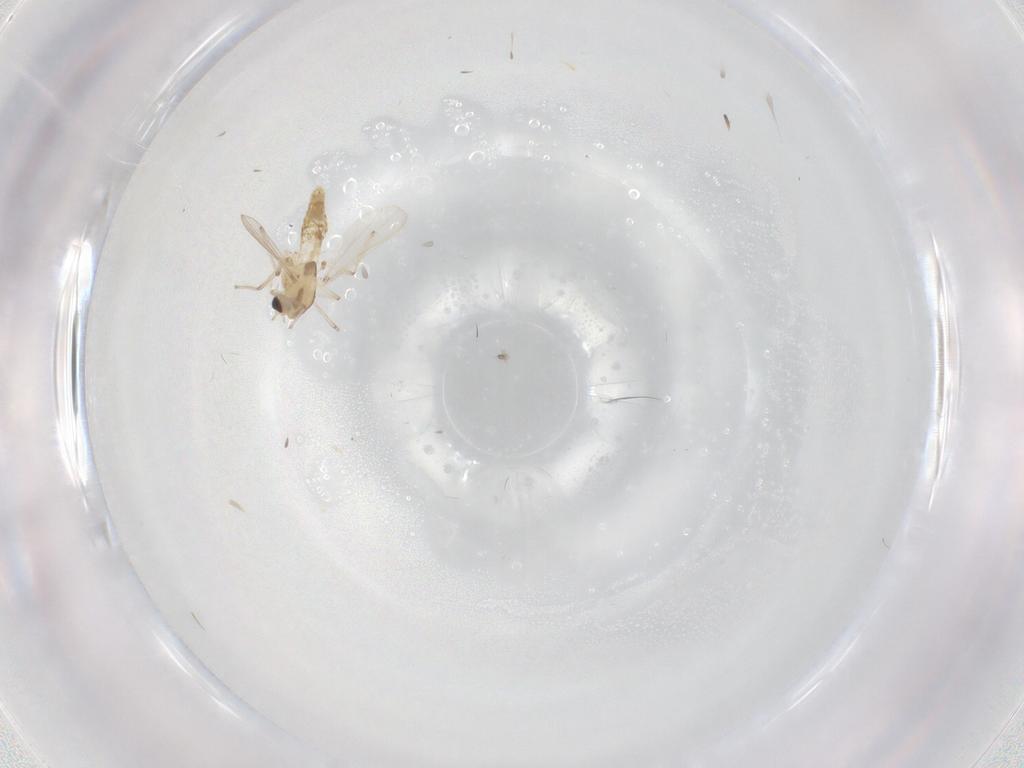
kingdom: Animalia
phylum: Arthropoda
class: Insecta
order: Diptera
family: Chironomidae
